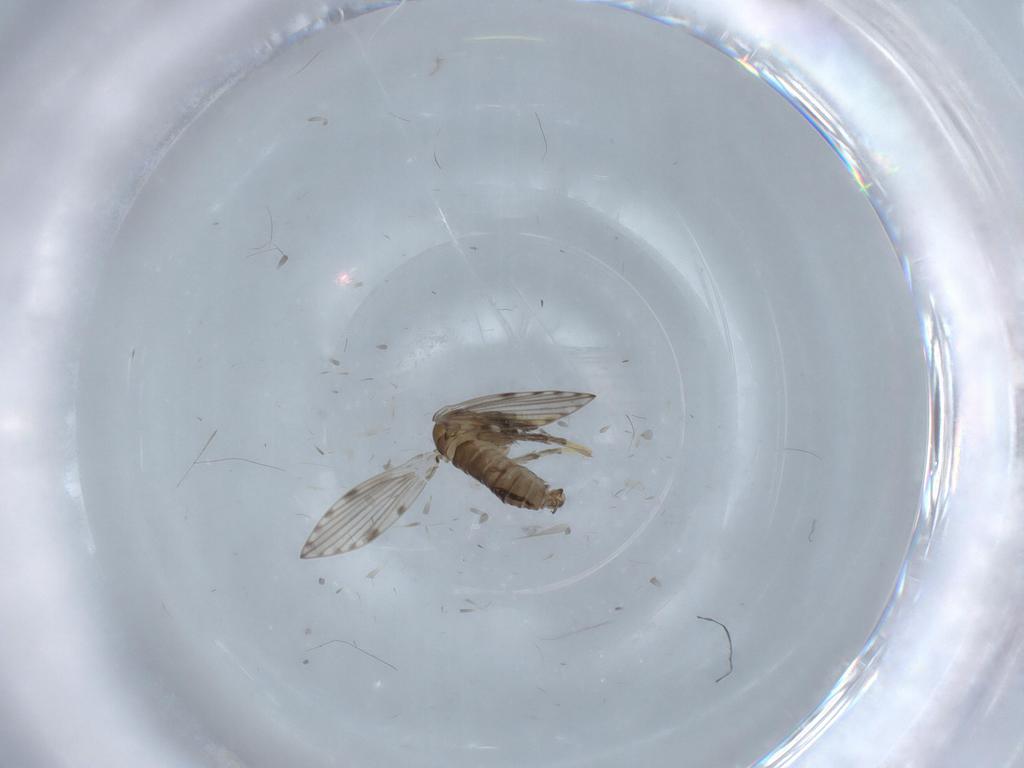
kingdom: Animalia
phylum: Arthropoda
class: Insecta
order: Diptera
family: Psychodidae
